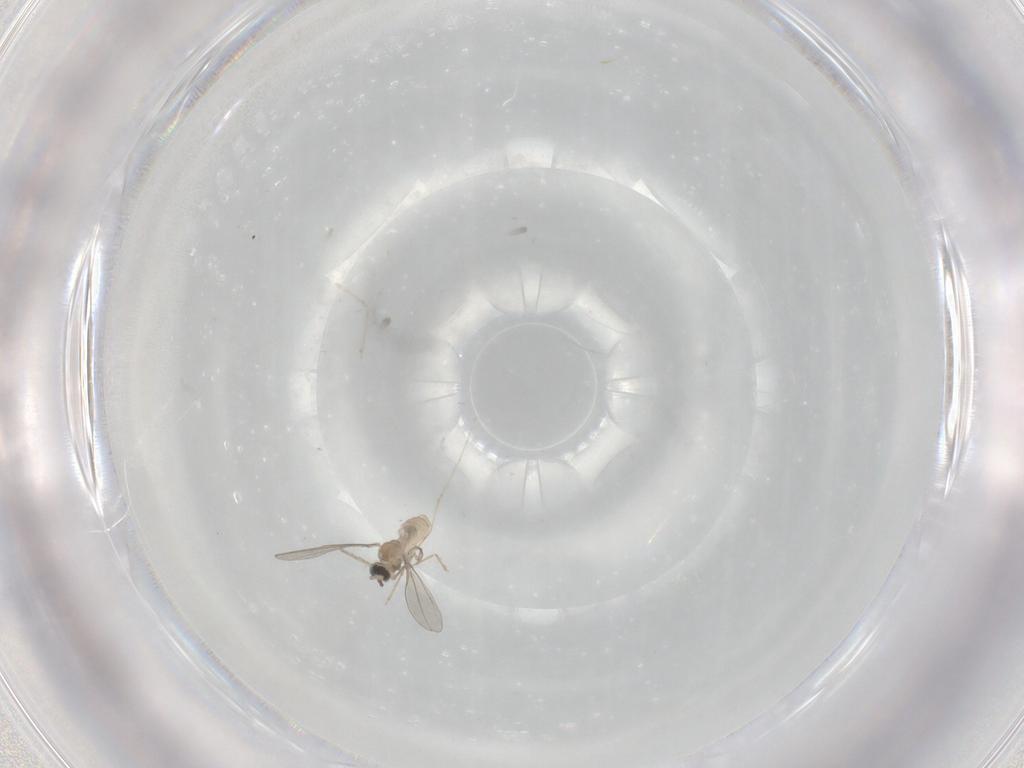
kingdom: Animalia
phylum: Arthropoda
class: Insecta
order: Diptera
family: Cecidomyiidae
